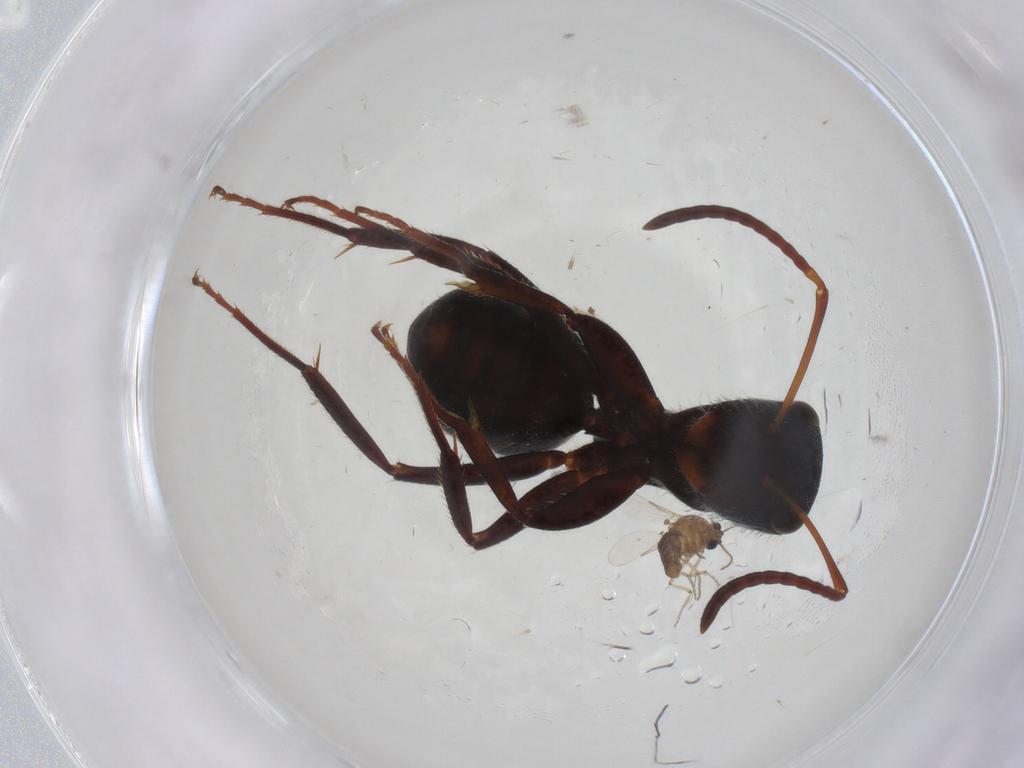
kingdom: Animalia
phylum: Arthropoda
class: Insecta
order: Hymenoptera
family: Formicidae
